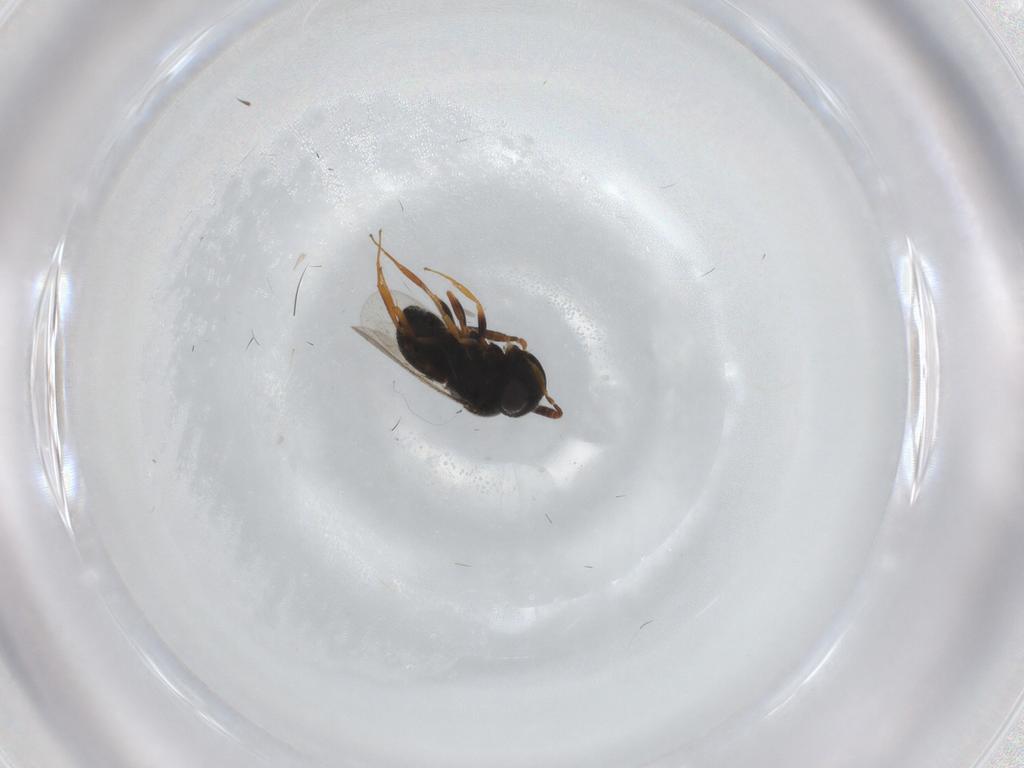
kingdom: Animalia
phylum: Arthropoda
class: Insecta
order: Hymenoptera
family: Scelionidae
